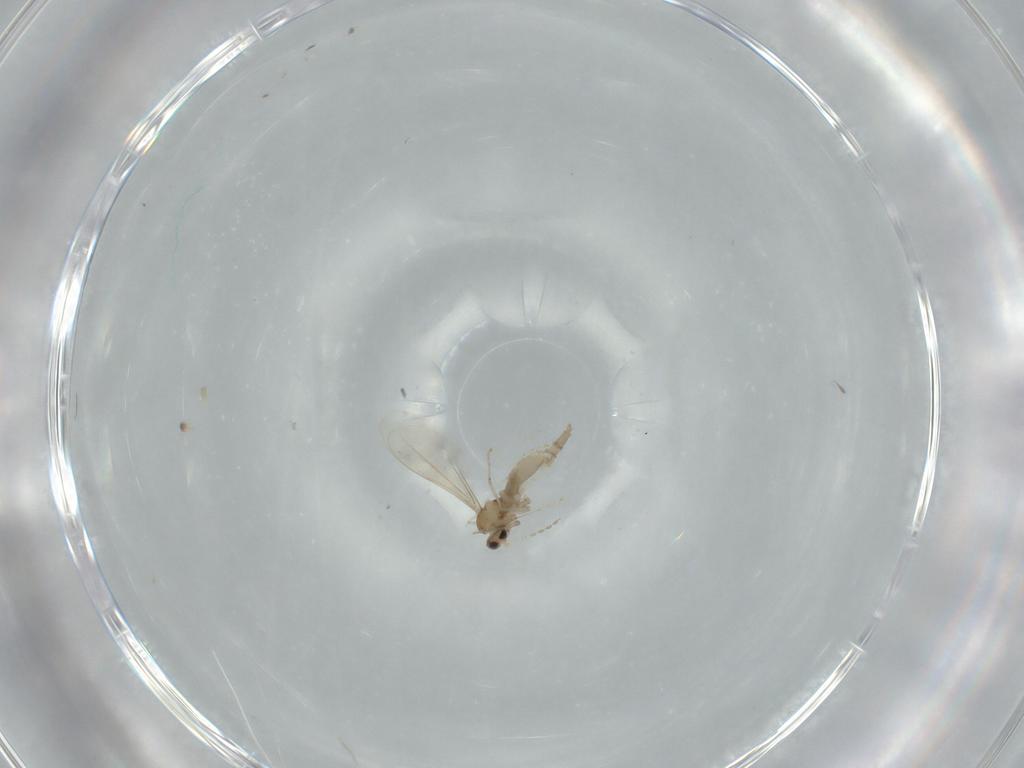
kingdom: Animalia
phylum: Arthropoda
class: Insecta
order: Diptera
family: Cecidomyiidae
